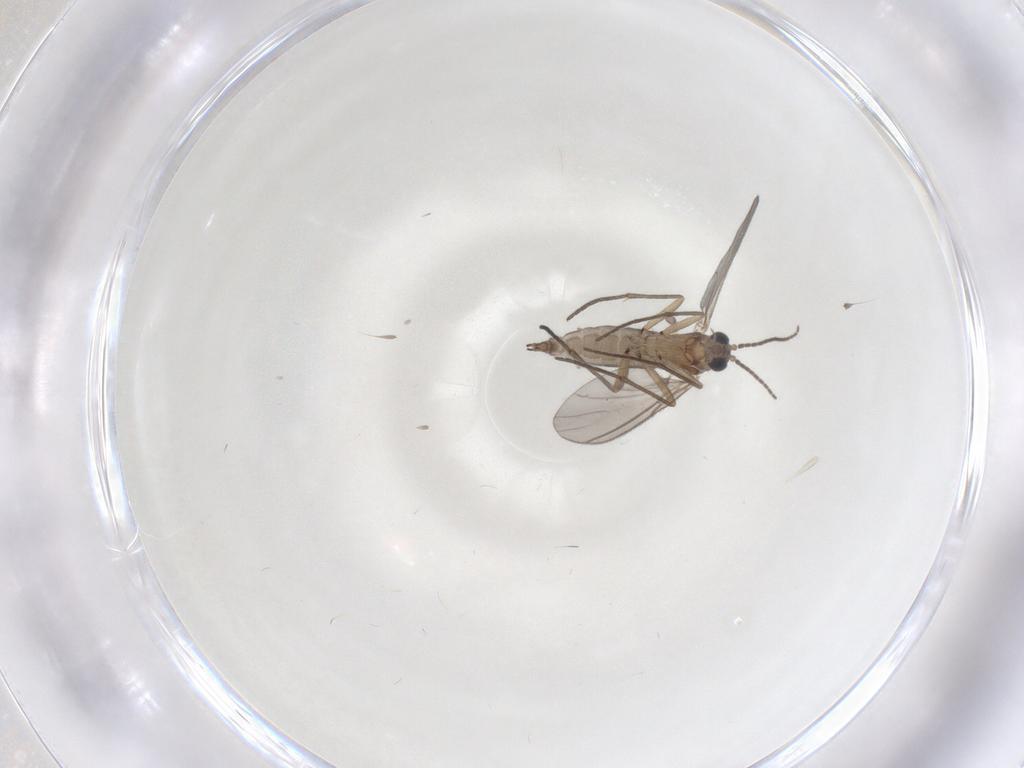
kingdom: Animalia
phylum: Arthropoda
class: Insecta
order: Diptera
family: Sciaridae
